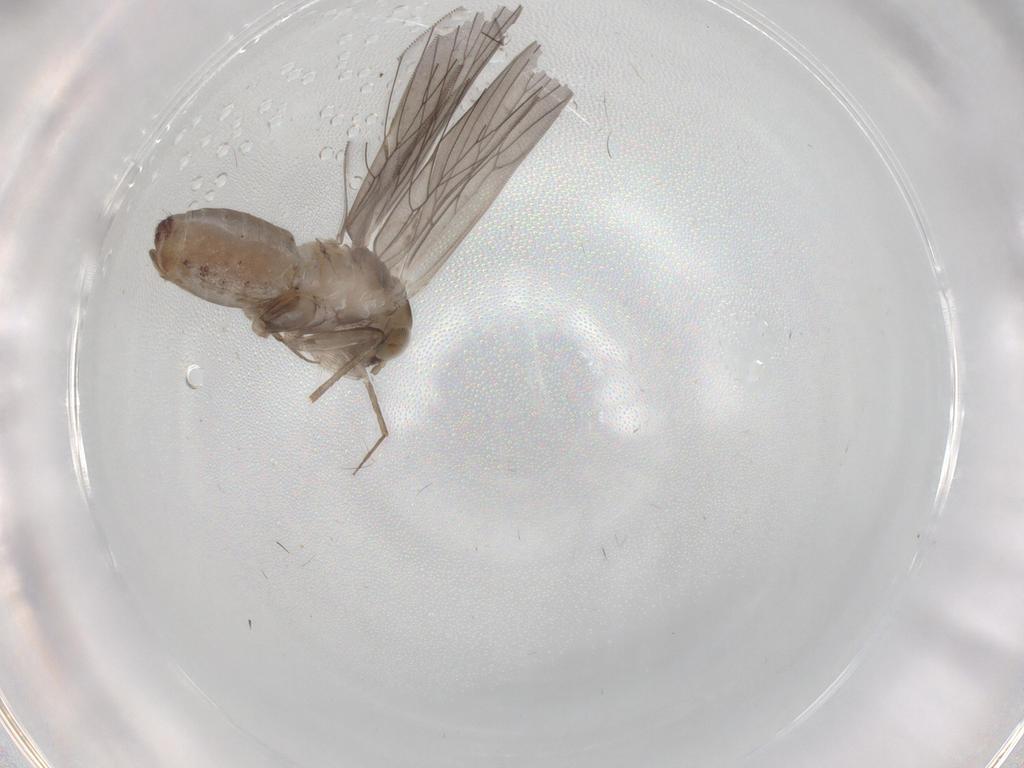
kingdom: Animalia
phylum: Arthropoda
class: Insecta
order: Psocodea
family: Lepidopsocidae
